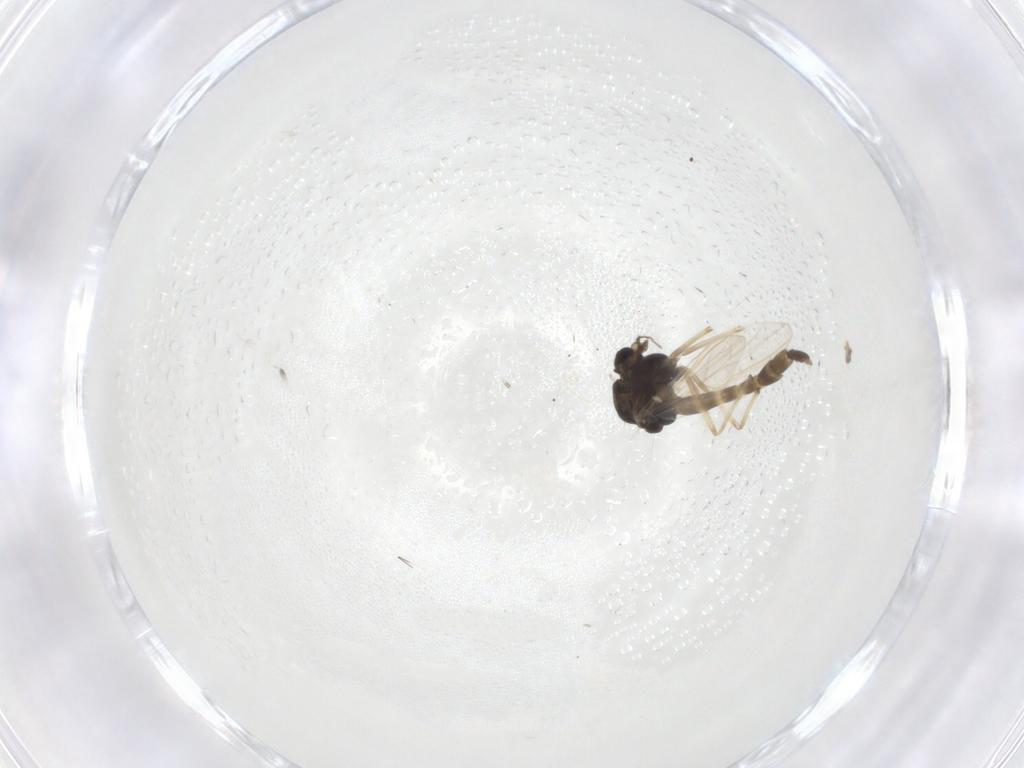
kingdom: Animalia
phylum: Arthropoda
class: Insecta
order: Diptera
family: Chironomidae
